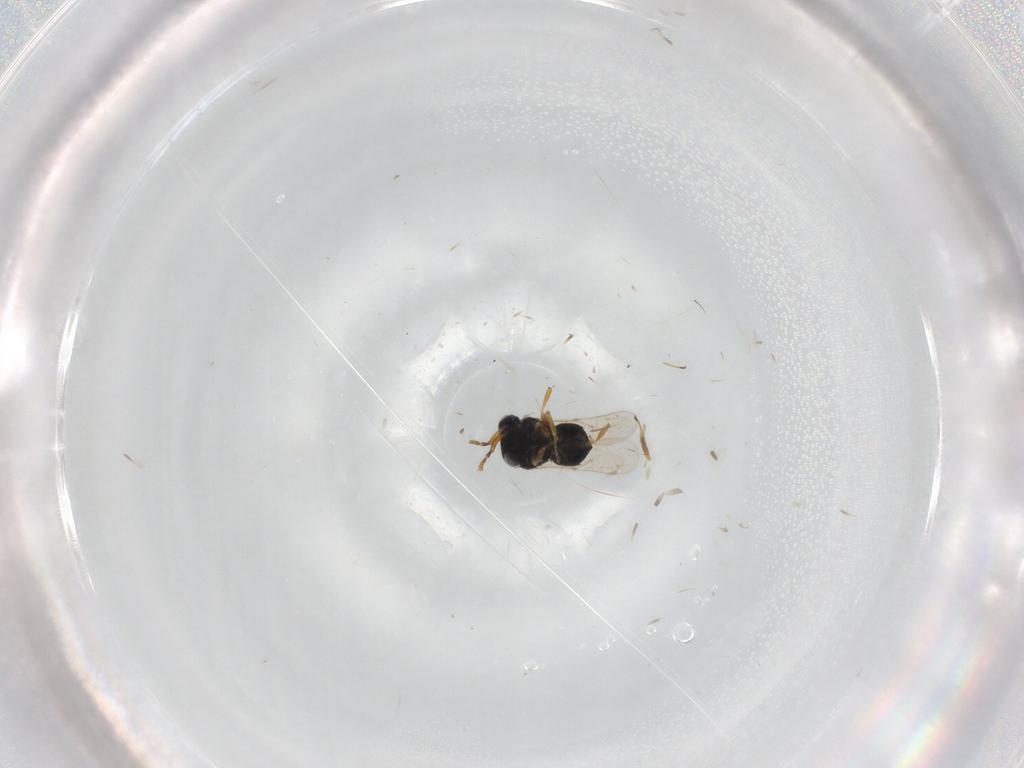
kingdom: Animalia
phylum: Arthropoda
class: Insecta
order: Hymenoptera
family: Scelionidae
